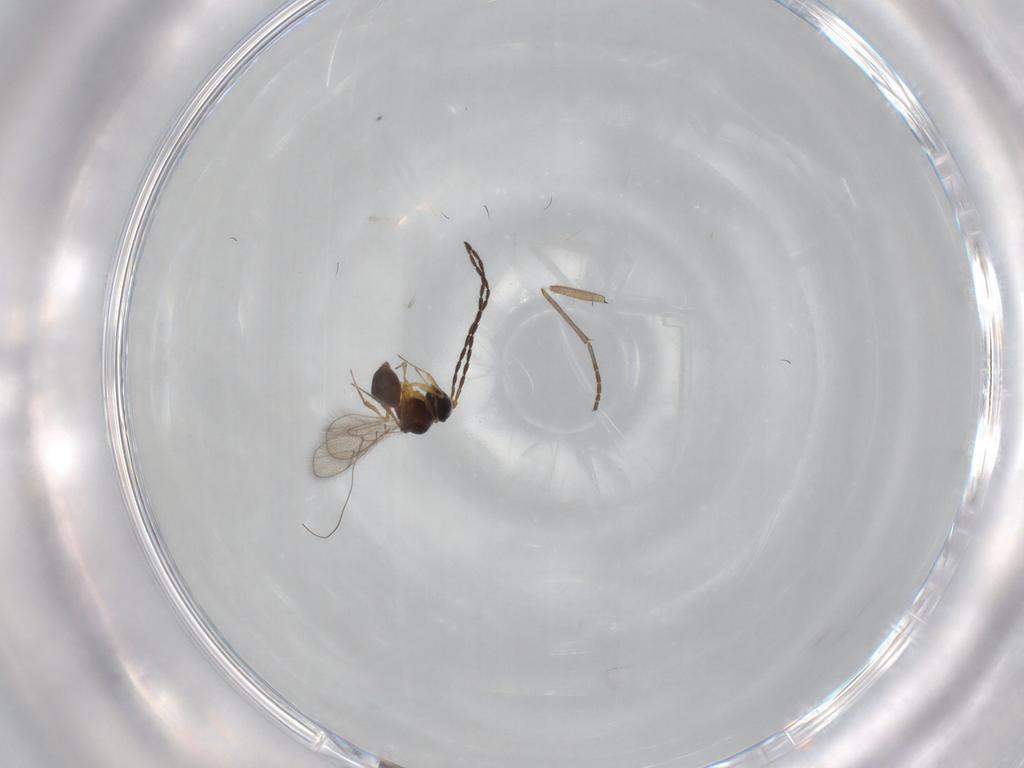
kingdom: Animalia
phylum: Arthropoda
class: Insecta
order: Hymenoptera
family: Figitidae
